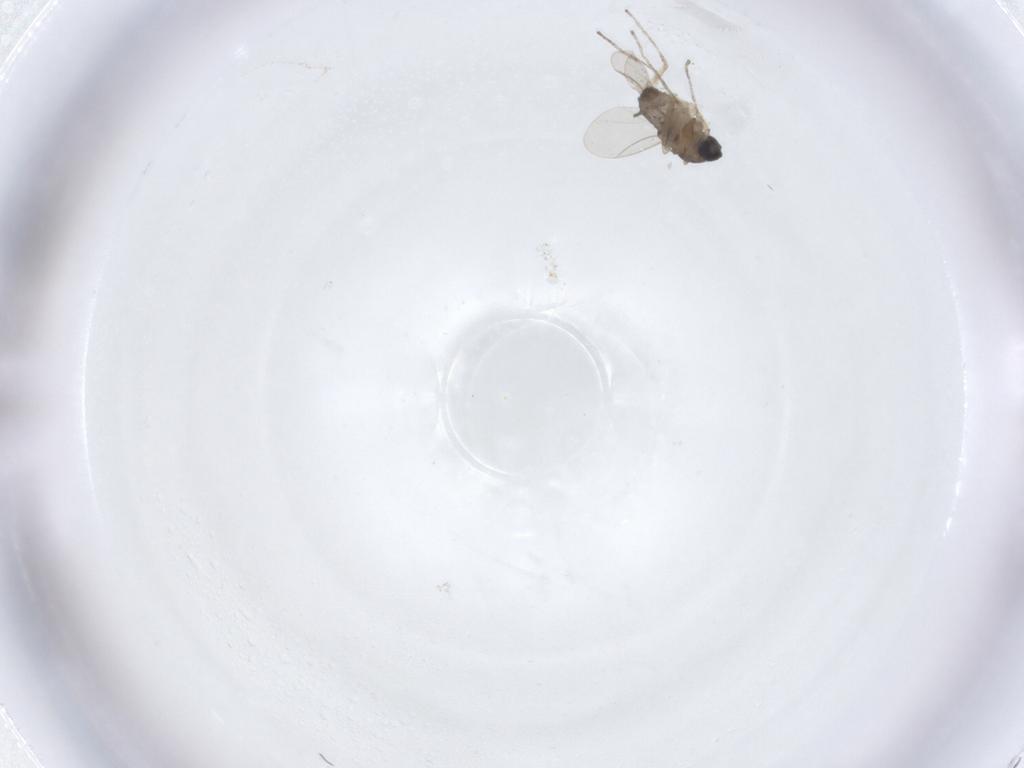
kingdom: Animalia
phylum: Arthropoda
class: Insecta
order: Diptera
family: Cecidomyiidae
